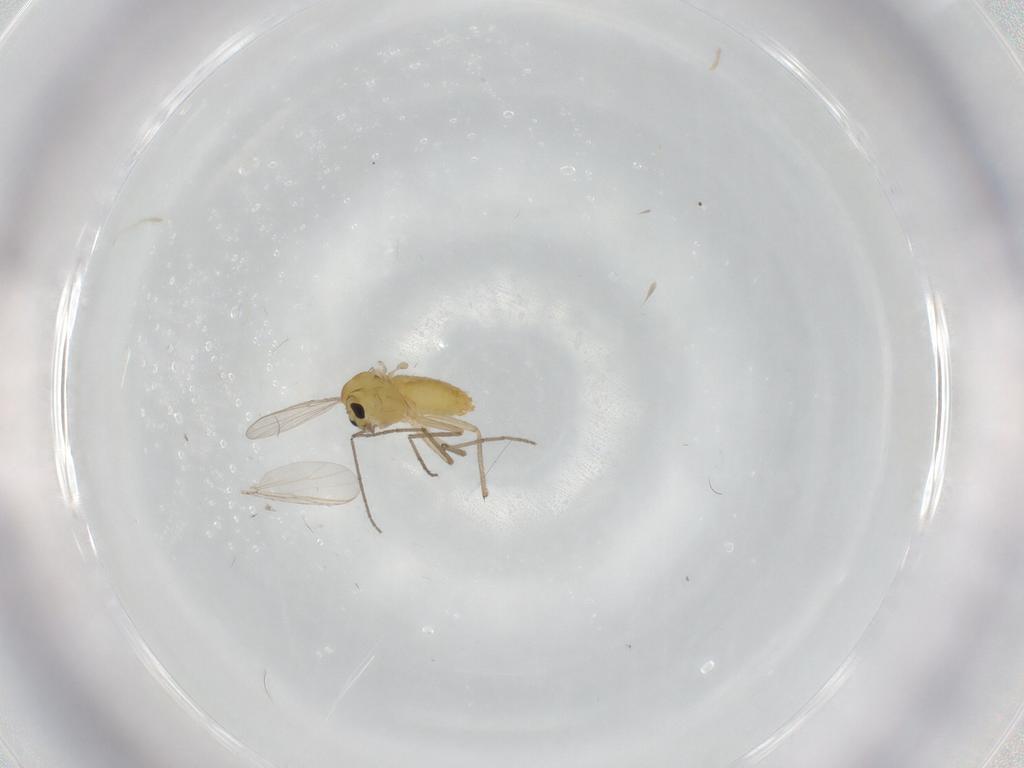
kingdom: Animalia
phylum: Arthropoda
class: Insecta
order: Diptera
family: Chironomidae
